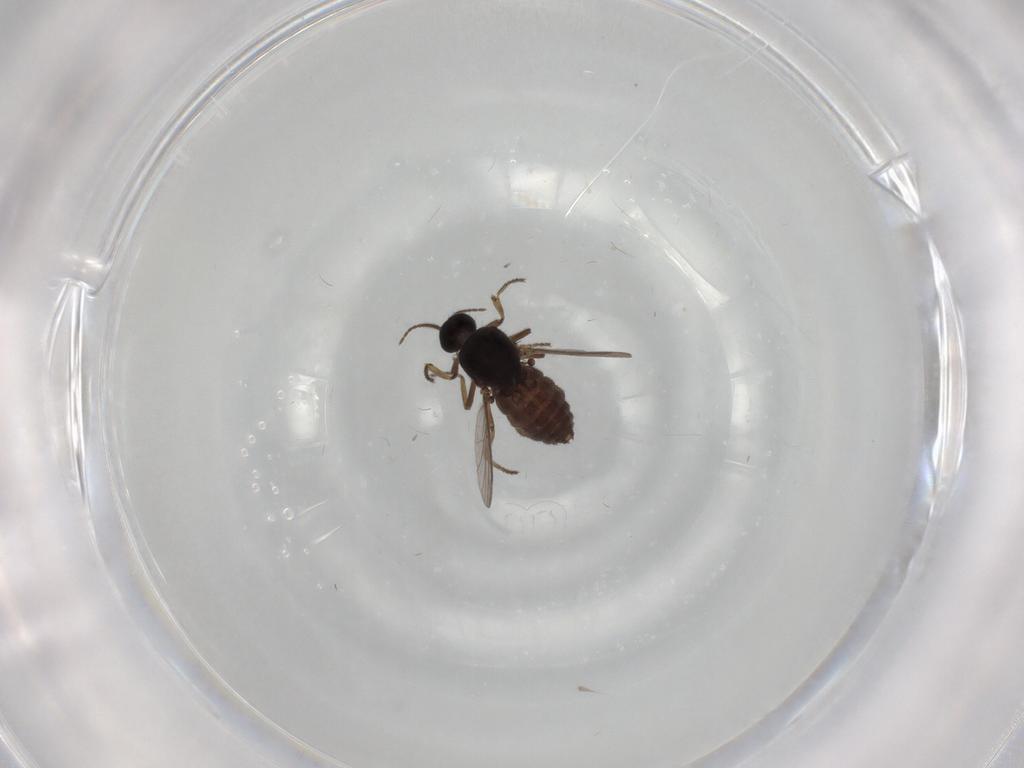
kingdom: Animalia
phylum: Arthropoda
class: Insecta
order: Diptera
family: Ceratopogonidae
